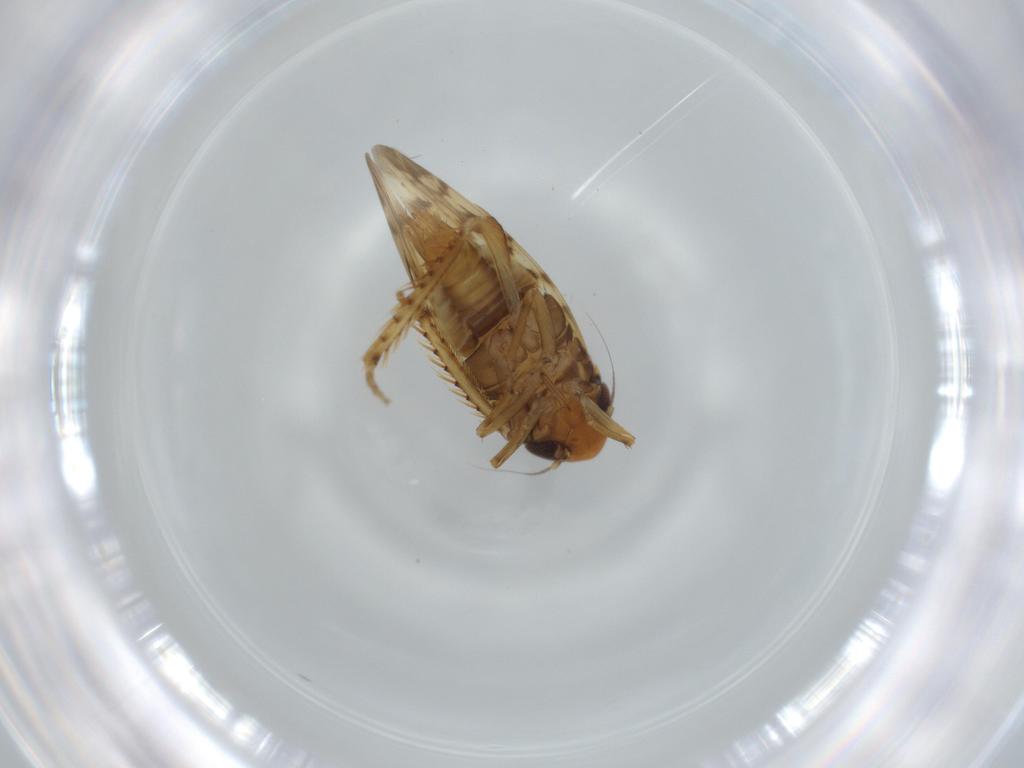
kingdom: Animalia
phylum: Arthropoda
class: Insecta
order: Hemiptera
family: Cicadellidae
